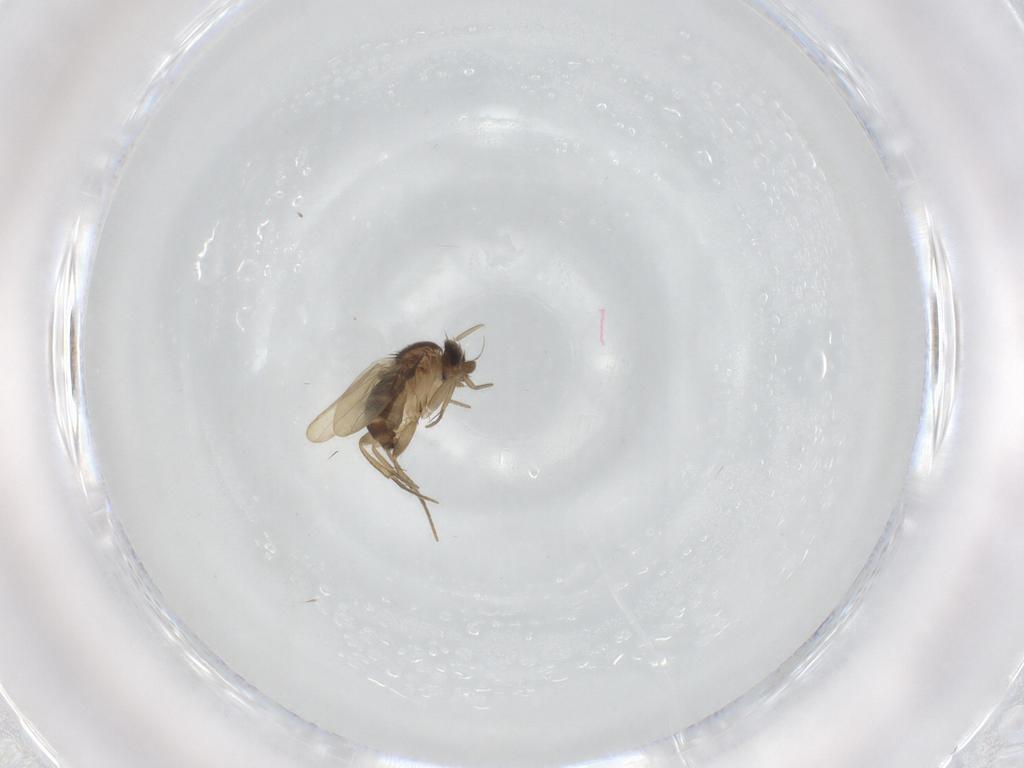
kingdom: Animalia
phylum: Arthropoda
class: Insecta
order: Diptera
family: Phoridae
